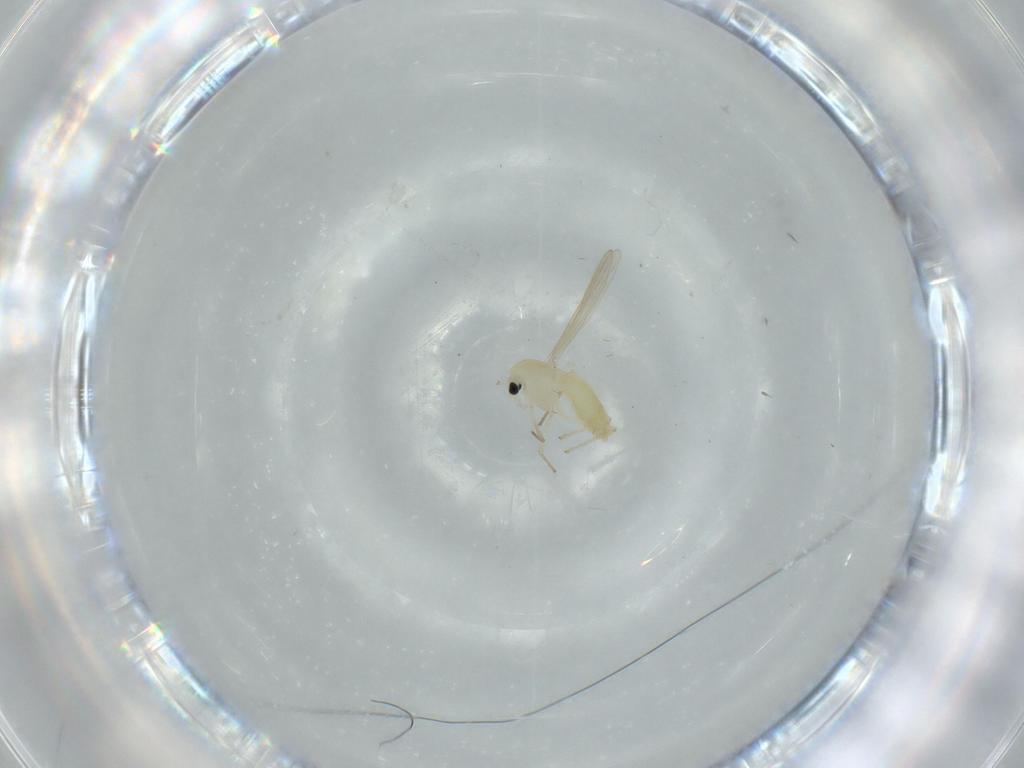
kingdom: Animalia
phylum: Arthropoda
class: Insecta
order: Diptera
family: Chironomidae
